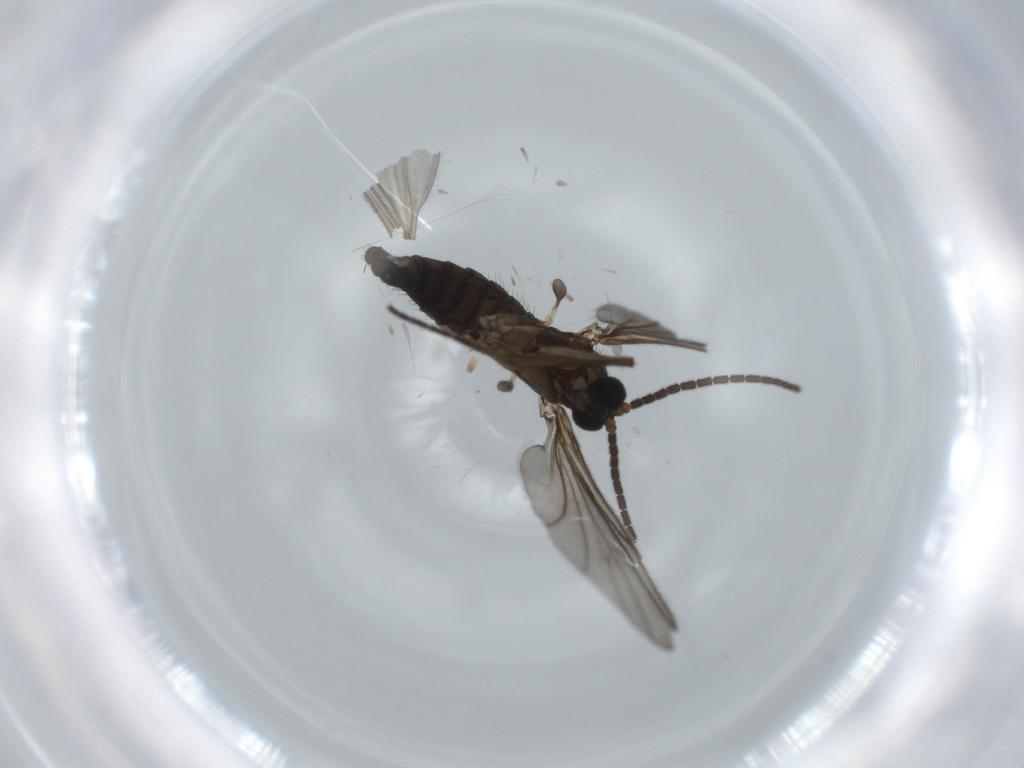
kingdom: Animalia
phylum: Arthropoda
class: Insecta
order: Diptera
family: Sciaridae
